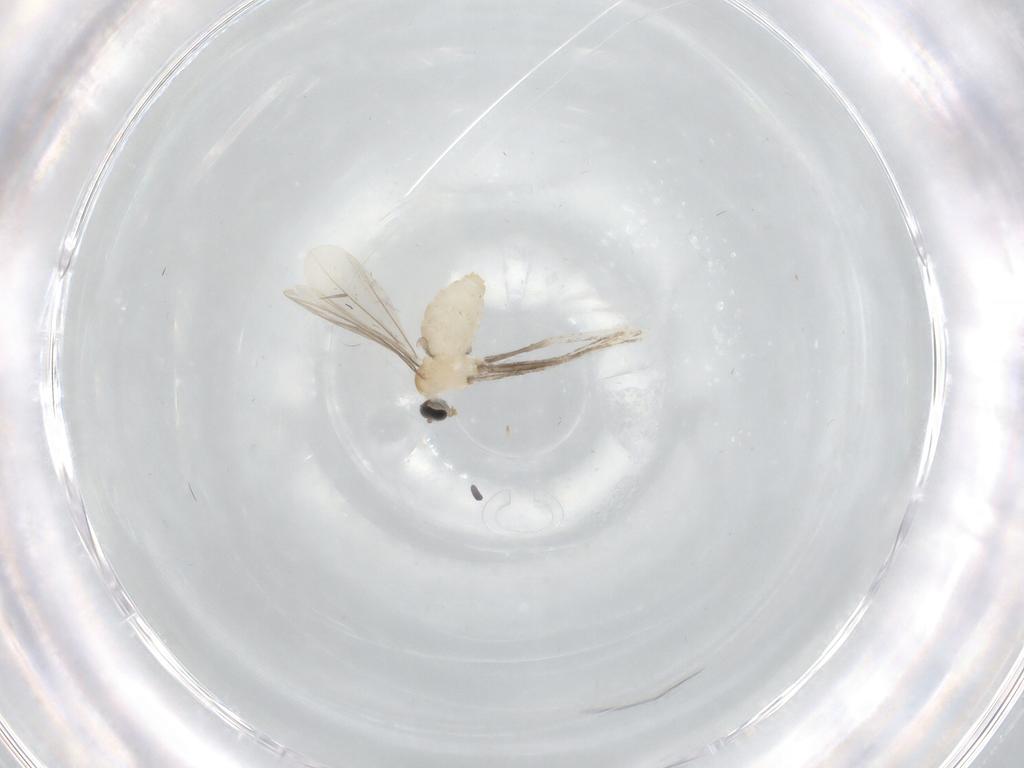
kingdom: Animalia
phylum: Arthropoda
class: Insecta
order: Diptera
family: Cecidomyiidae
